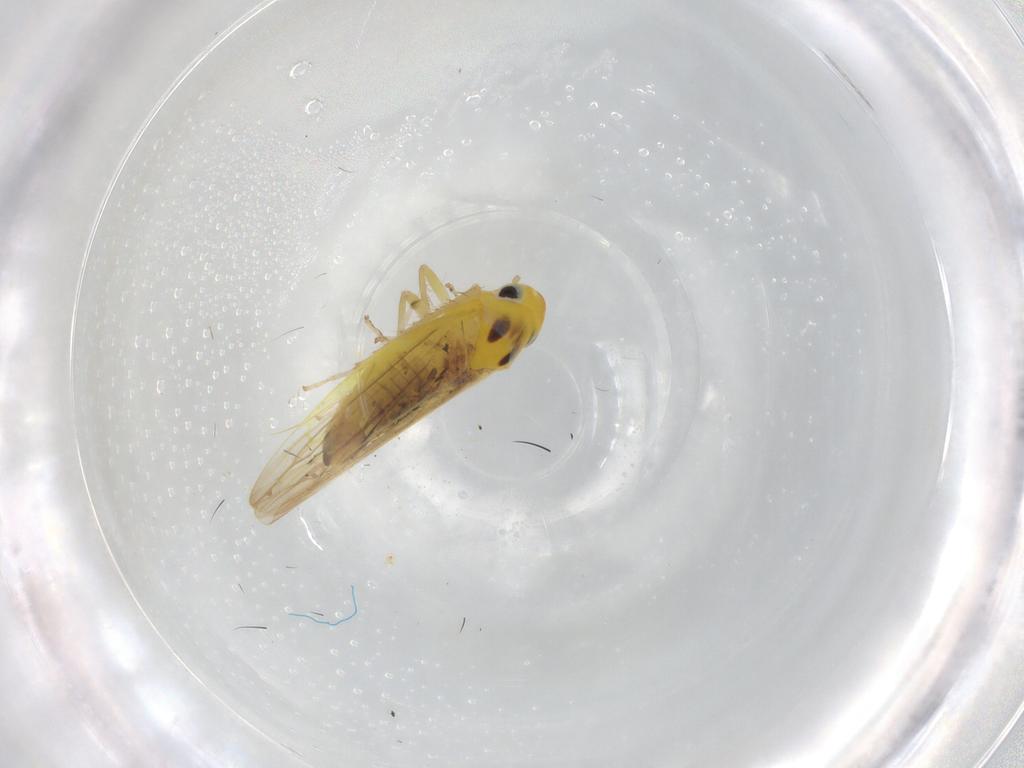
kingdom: Animalia
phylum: Arthropoda
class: Insecta
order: Hemiptera
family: Cicadellidae
